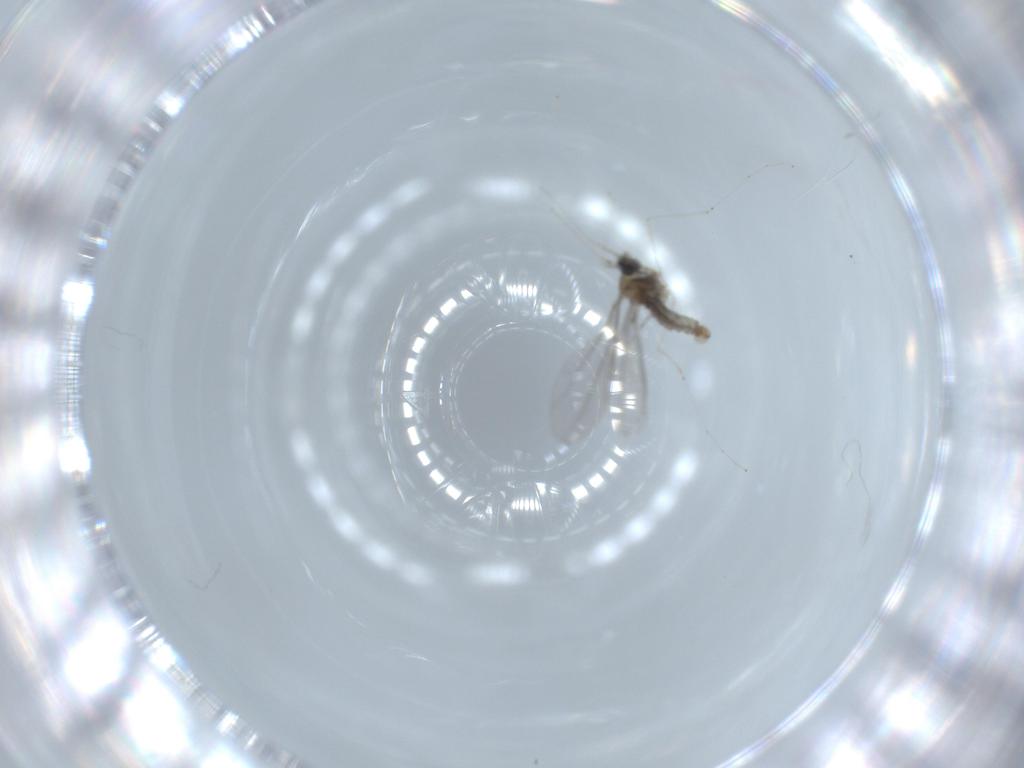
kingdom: Animalia
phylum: Arthropoda
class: Insecta
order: Diptera
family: Cecidomyiidae
